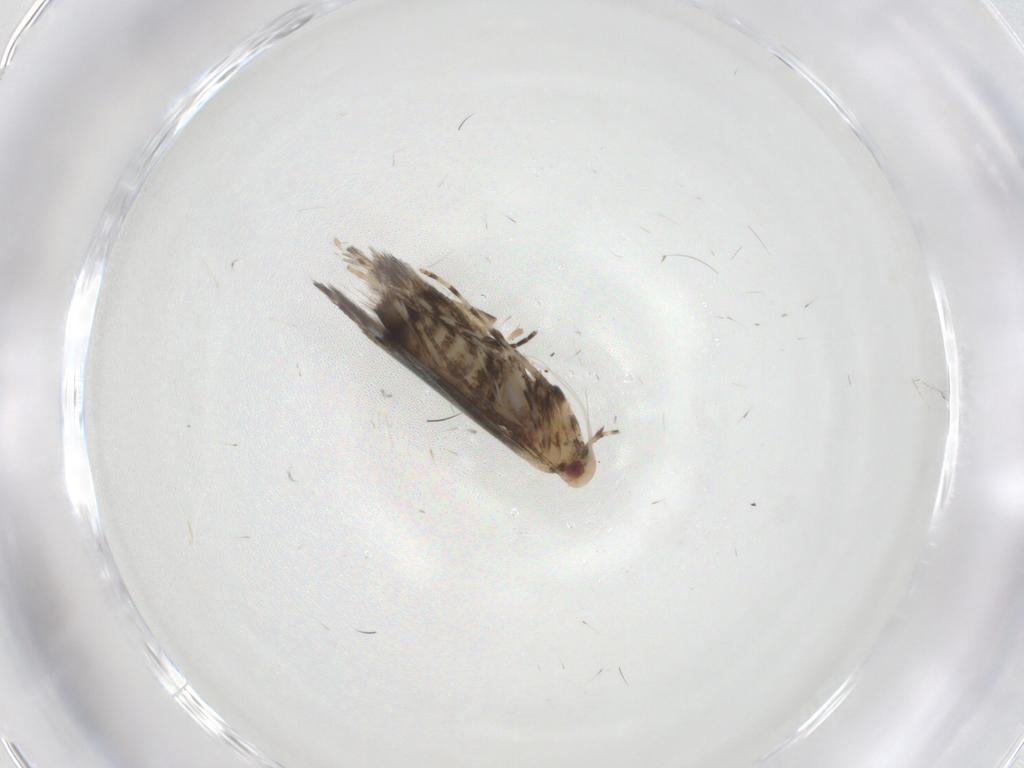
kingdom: Animalia
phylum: Arthropoda
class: Insecta
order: Lepidoptera
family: Gracillariidae
